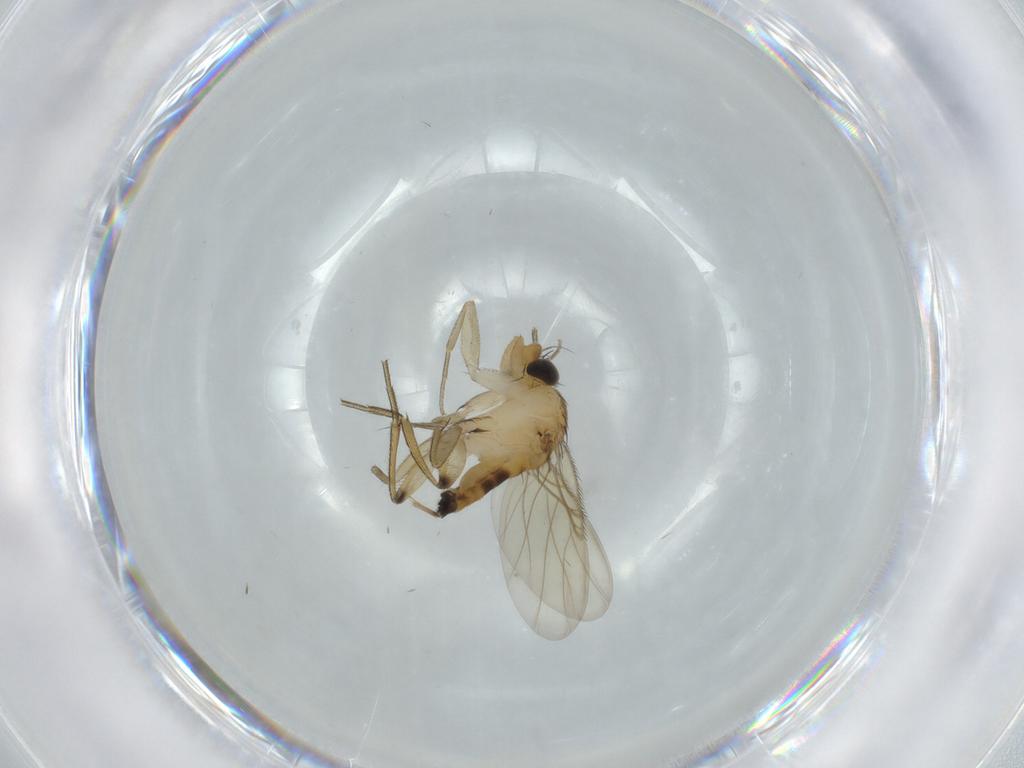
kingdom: Animalia
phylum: Arthropoda
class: Insecta
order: Diptera
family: Phoridae
